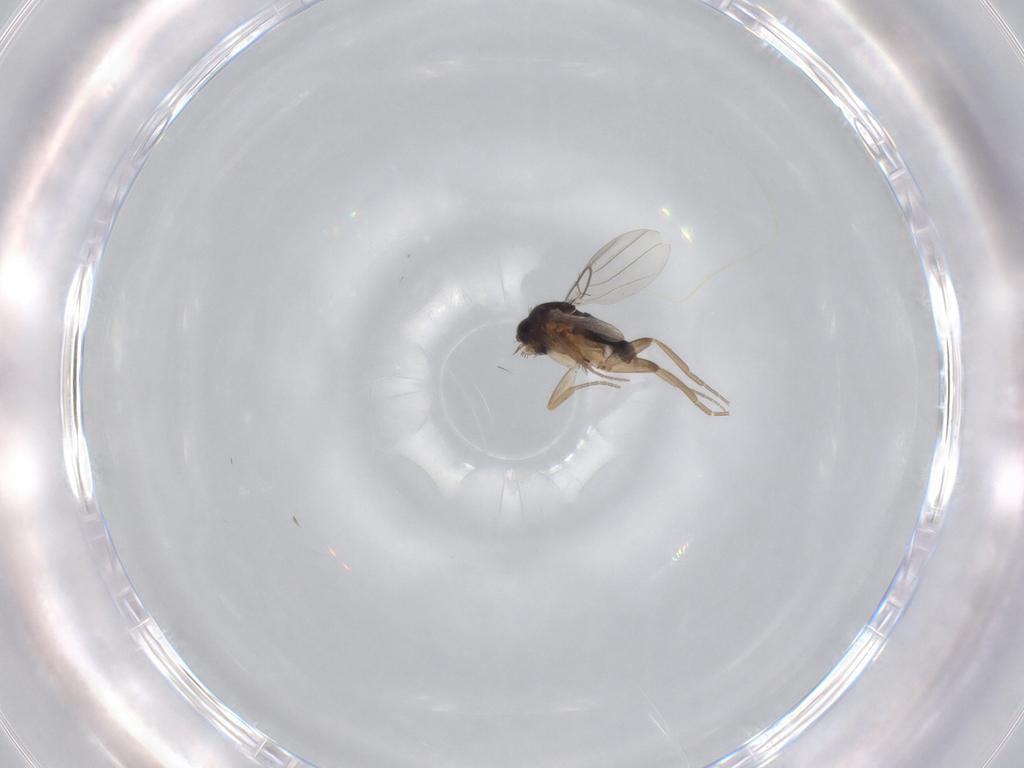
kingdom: Animalia
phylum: Arthropoda
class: Insecta
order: Diptera
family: Phoridae
